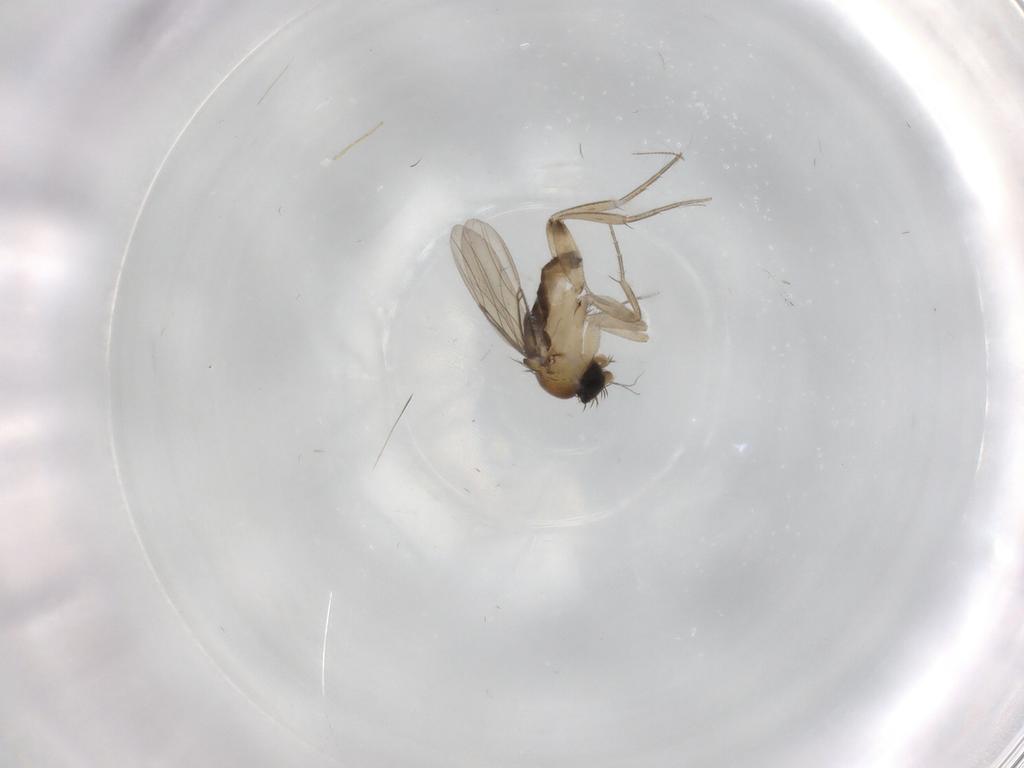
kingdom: Animalia
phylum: Arthropoda
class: Insecta
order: Diptera
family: Phoridae
